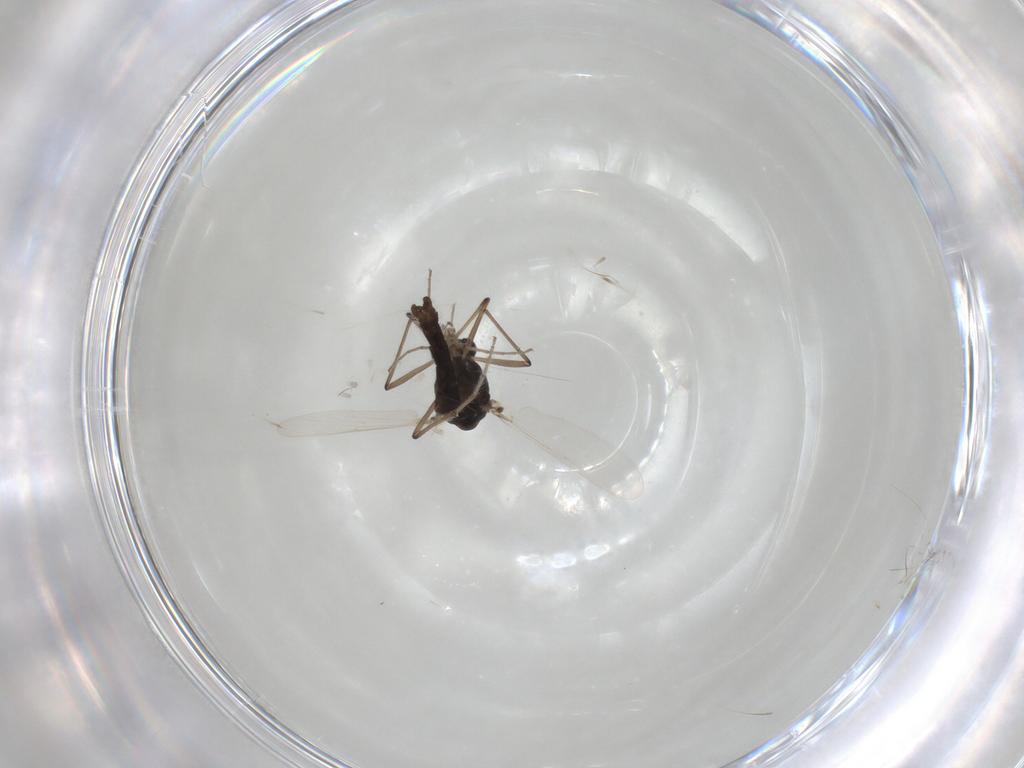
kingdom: Animalia
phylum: Arthropoda
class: Insecta
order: Diptera
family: Chironomidae
